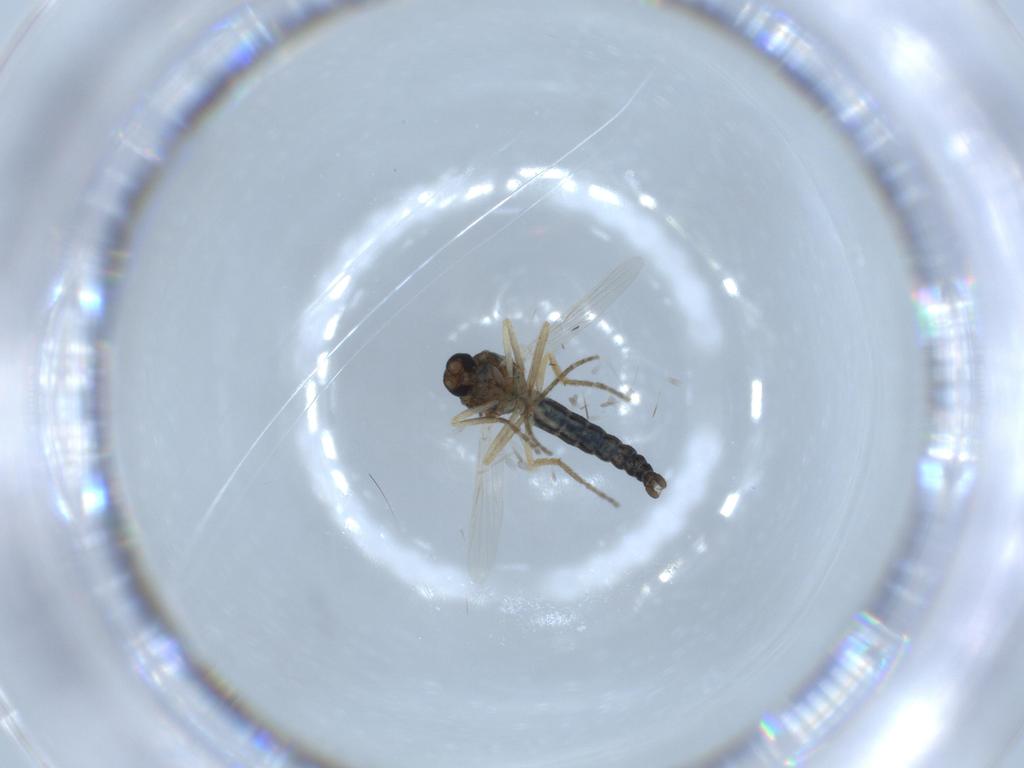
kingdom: Animalia
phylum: Arthropoda
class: Insecta
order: Diptera
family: Ceratopogonidae
